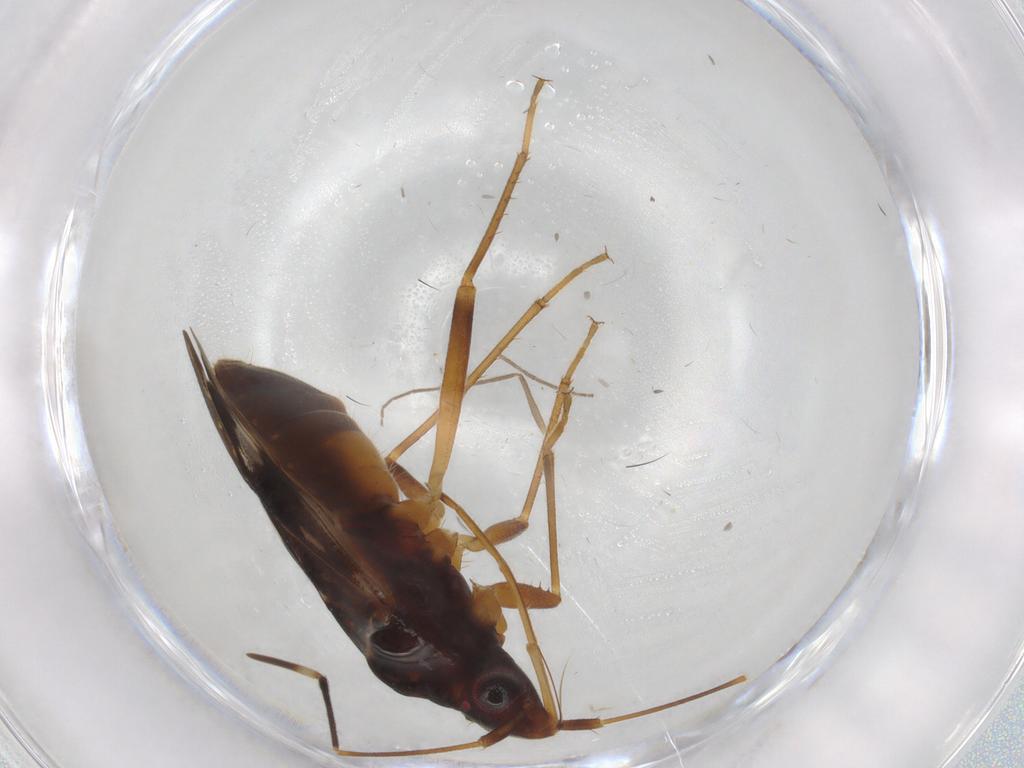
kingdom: Animalia
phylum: Arthropoda
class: Insecta
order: Hemiptera
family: Rhyparochromidae
